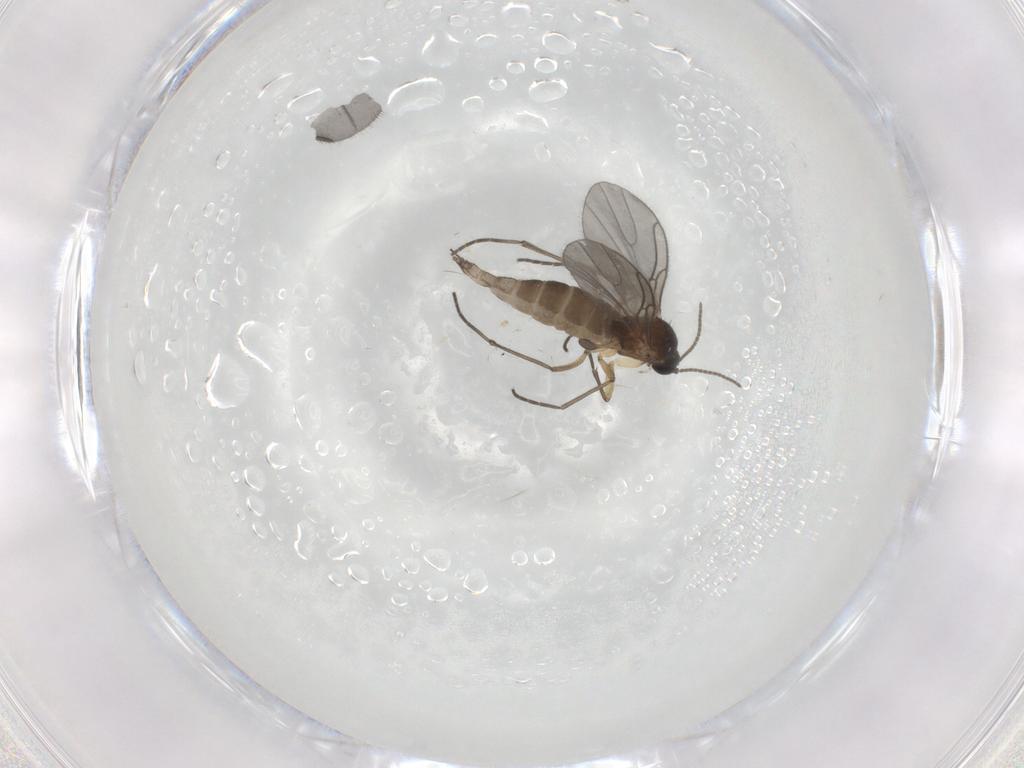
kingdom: Animalia
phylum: Arthropoda
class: Insecta
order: Diptera
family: Sciaridae
